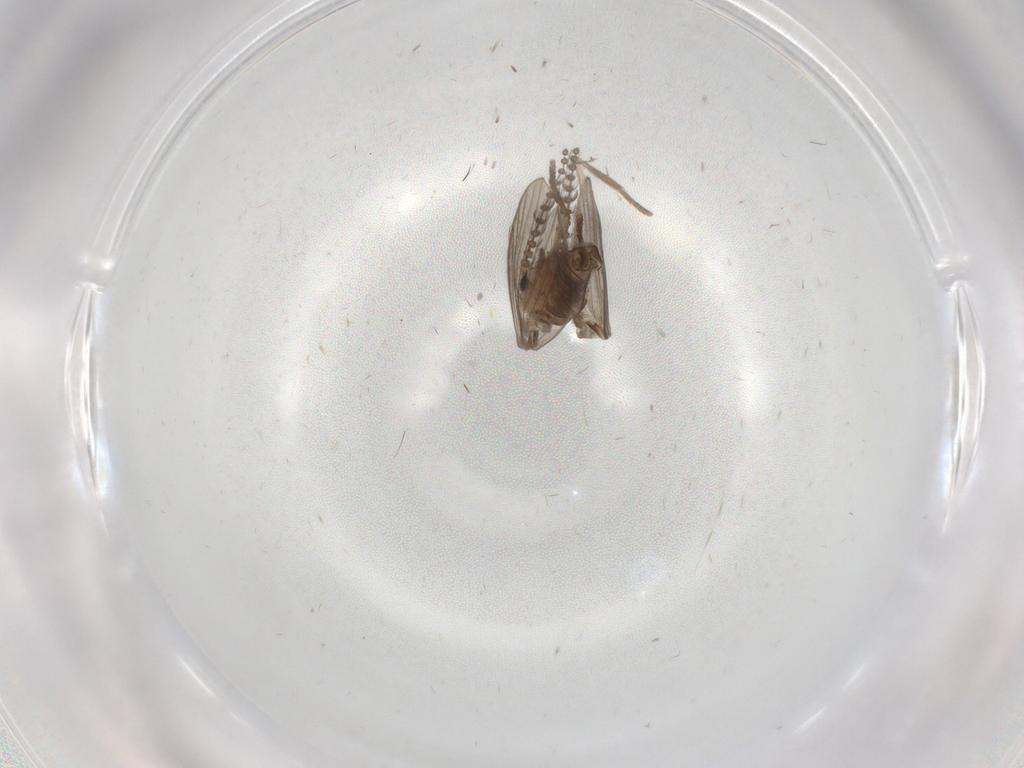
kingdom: Animalia
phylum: Arthropoda
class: Insecta
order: Diptera
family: Psychodidae
